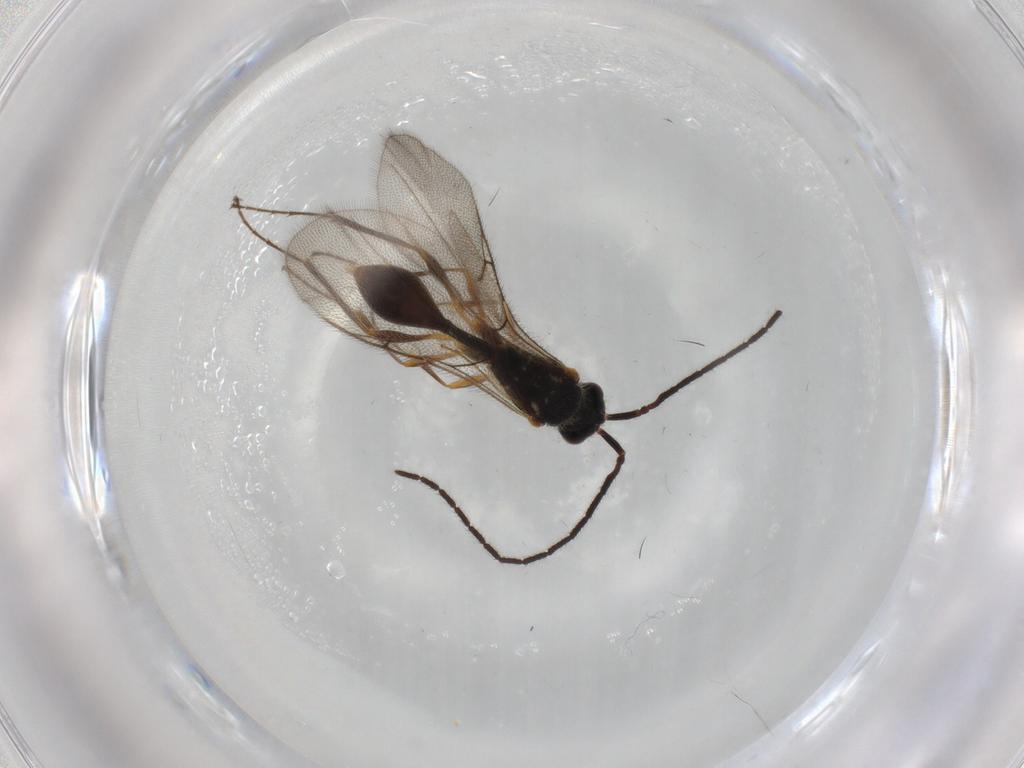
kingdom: Animalia
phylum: Arthropoda
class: Insecta
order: Hymenoptera
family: Diapriidae
